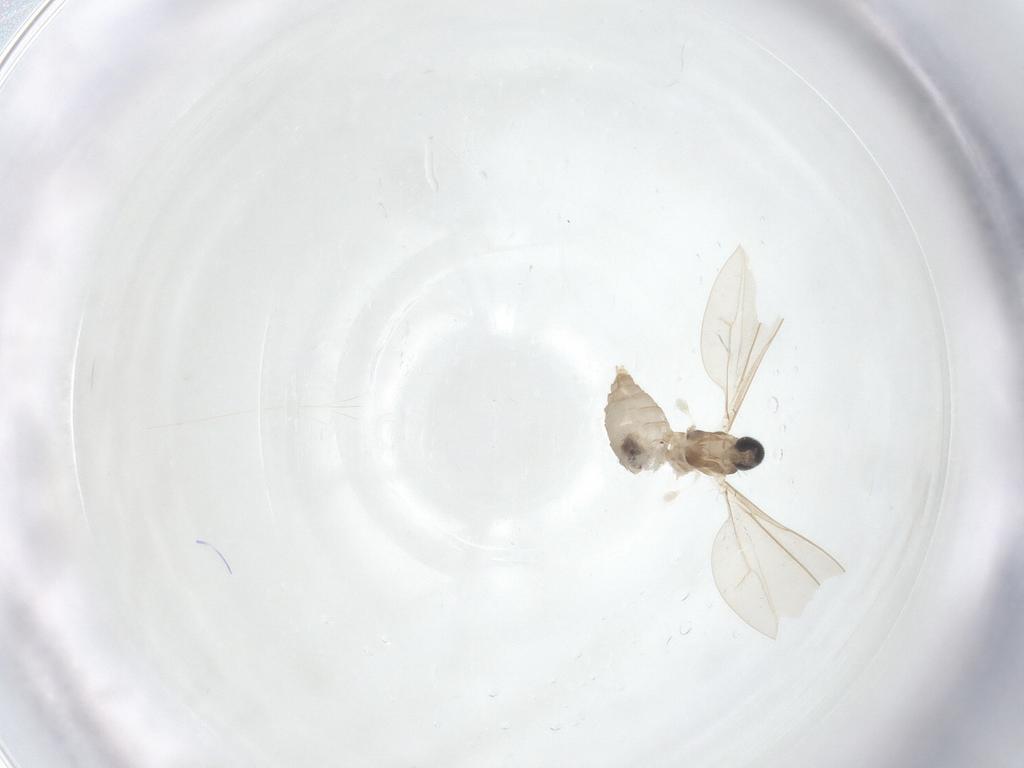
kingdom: Animalia
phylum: Arthropoda
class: Insecta
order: Diptera
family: Cecidomyiidae
